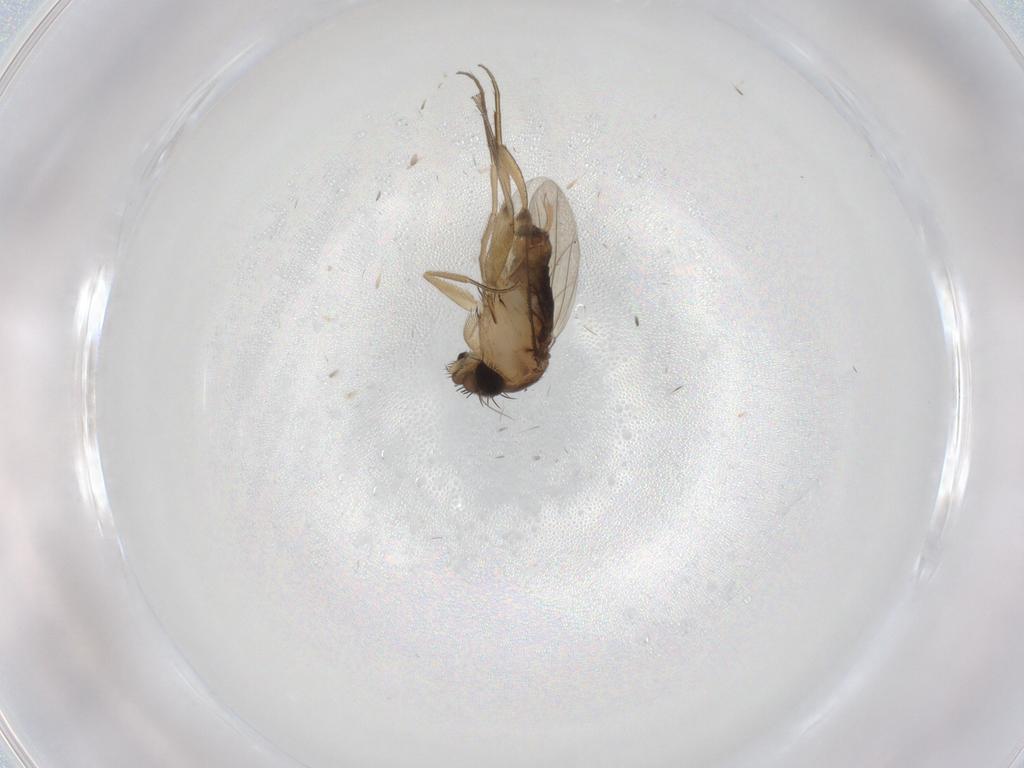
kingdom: Animalia
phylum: Arthropoda
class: Insecta
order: Diptera
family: Phoridae
